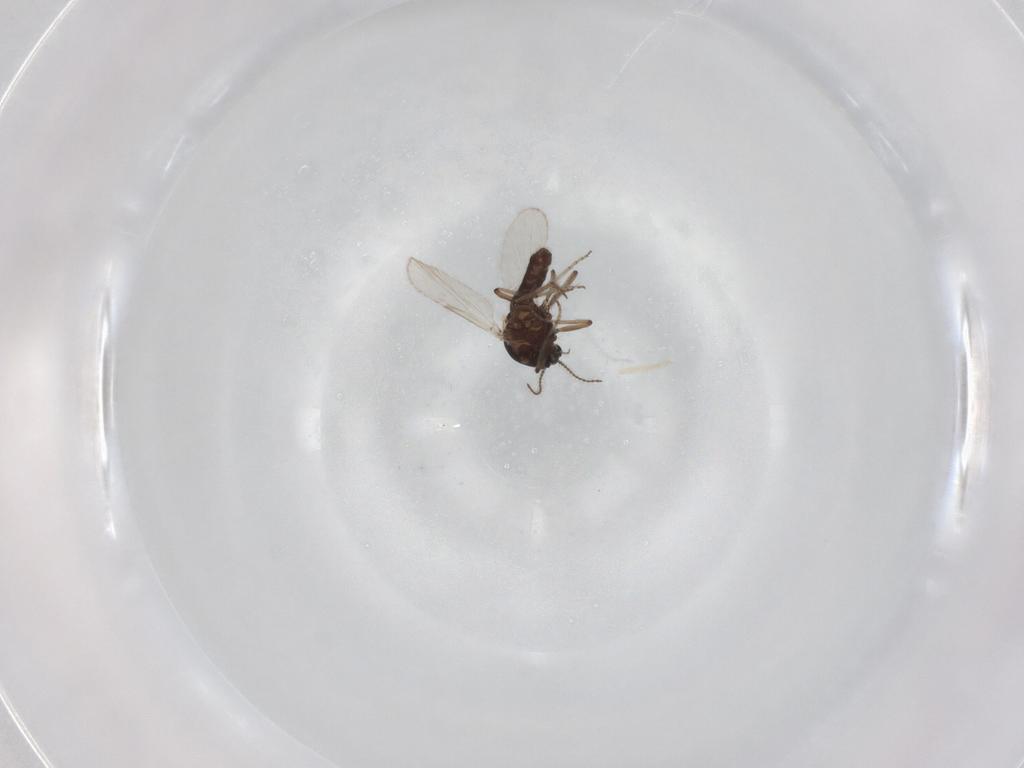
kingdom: Animalia
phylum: Arthropoda
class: Insecta
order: Diptera
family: Ceratopogonidae
